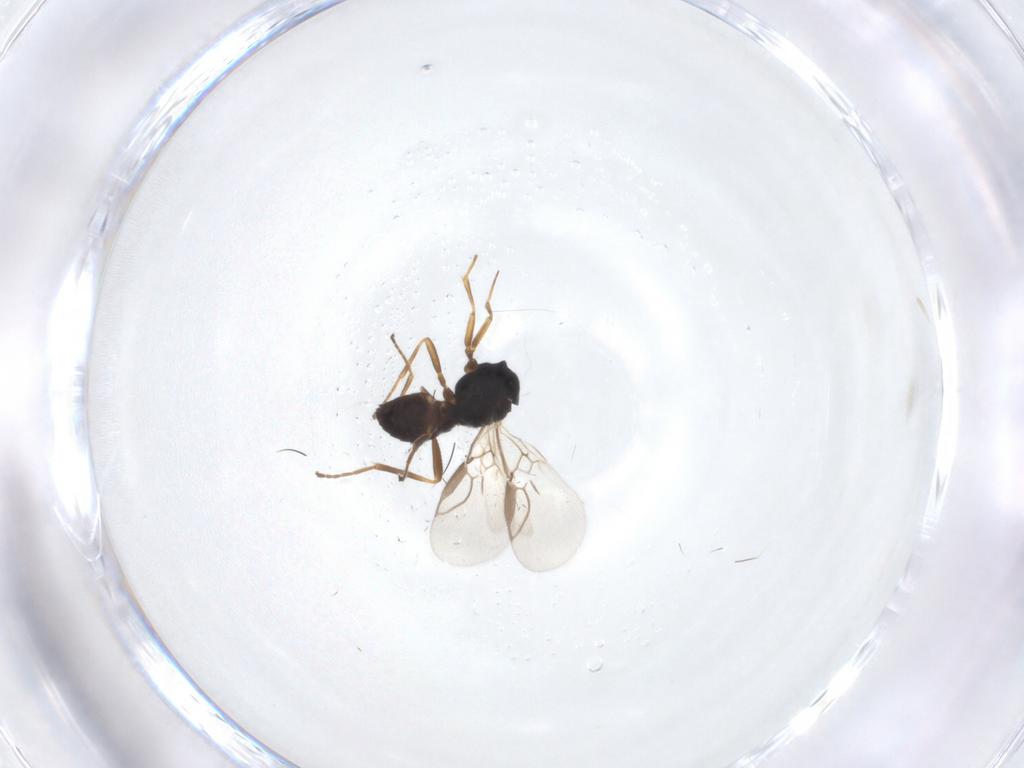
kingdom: Animalia
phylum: Arthropoda
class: Insecta
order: Hymenoptera
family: Braconidae
